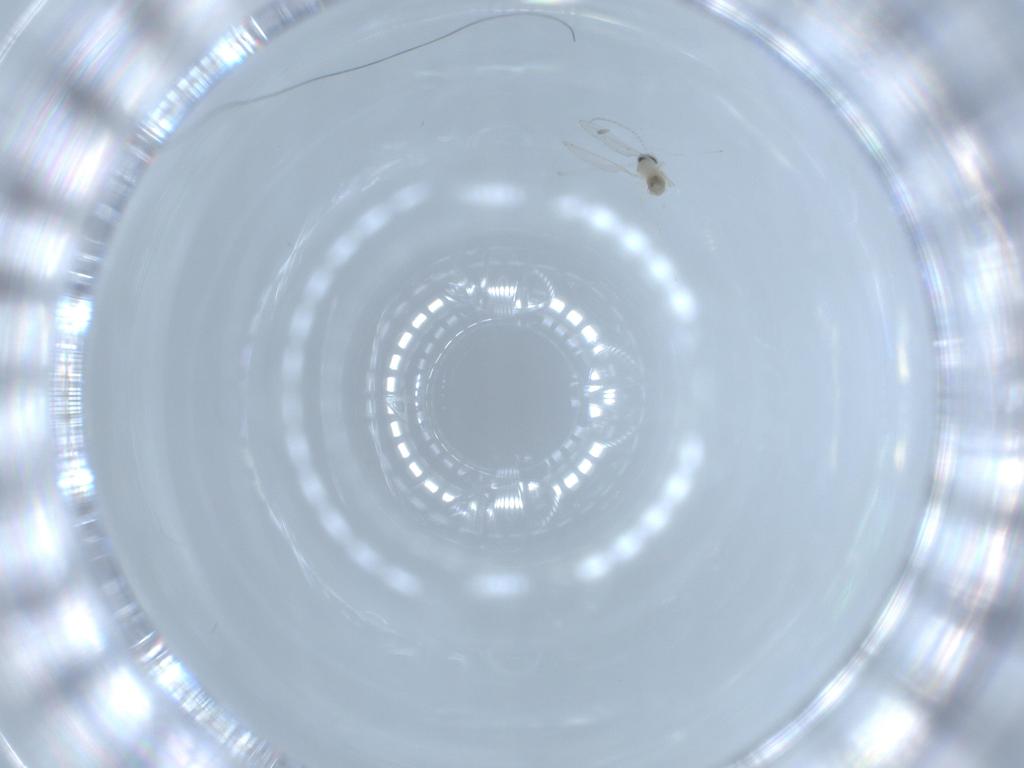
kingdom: Animalia
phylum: Arthropoda
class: Insecta
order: Diptera
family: Cecidomyiidae
